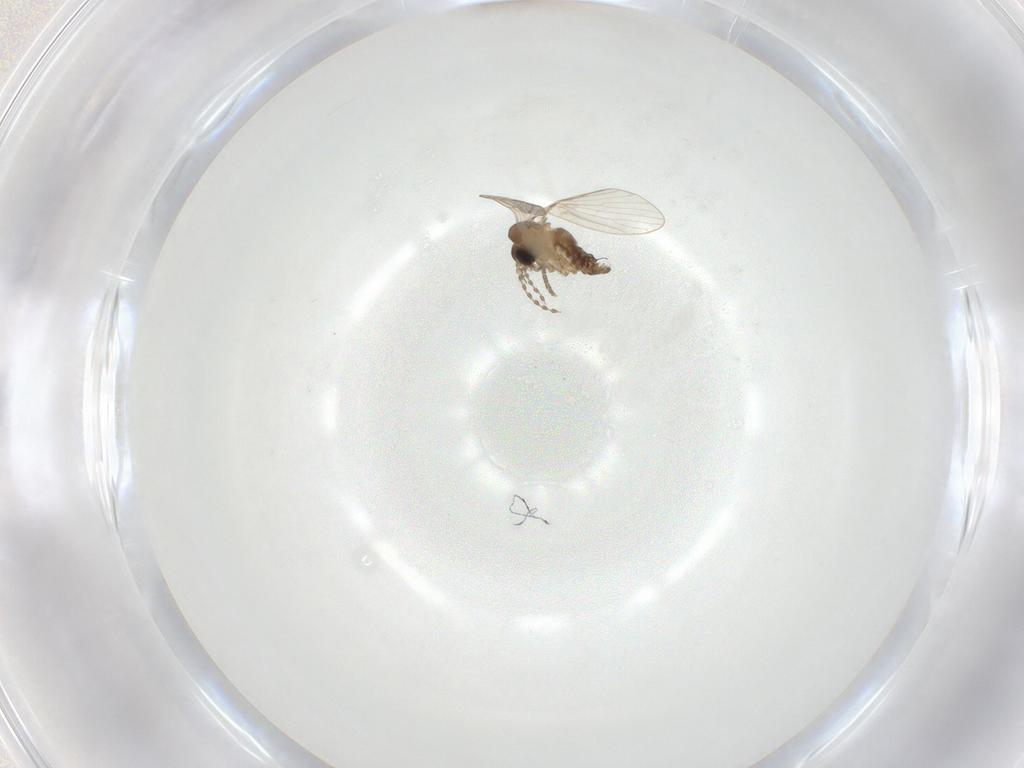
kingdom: Animalia
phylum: Arthropoda
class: Insecta
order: Diptera
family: Psychodidae
